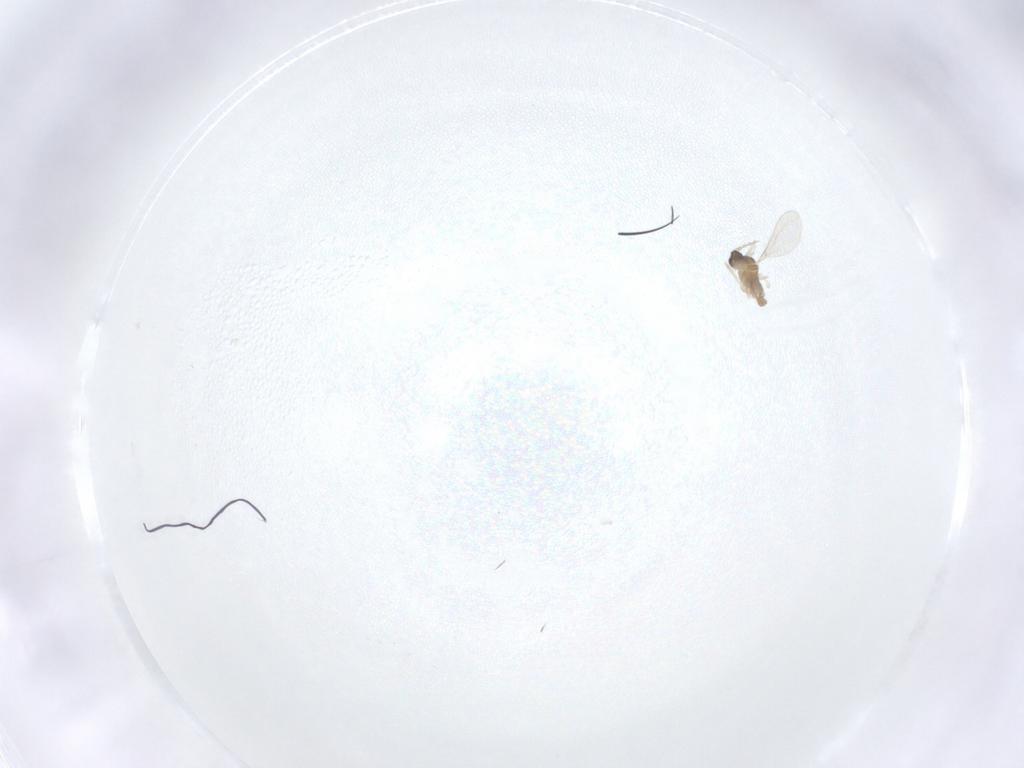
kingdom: Animalia
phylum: Arthropoda
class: Insecta
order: Diptera
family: Cecidomyiidae
